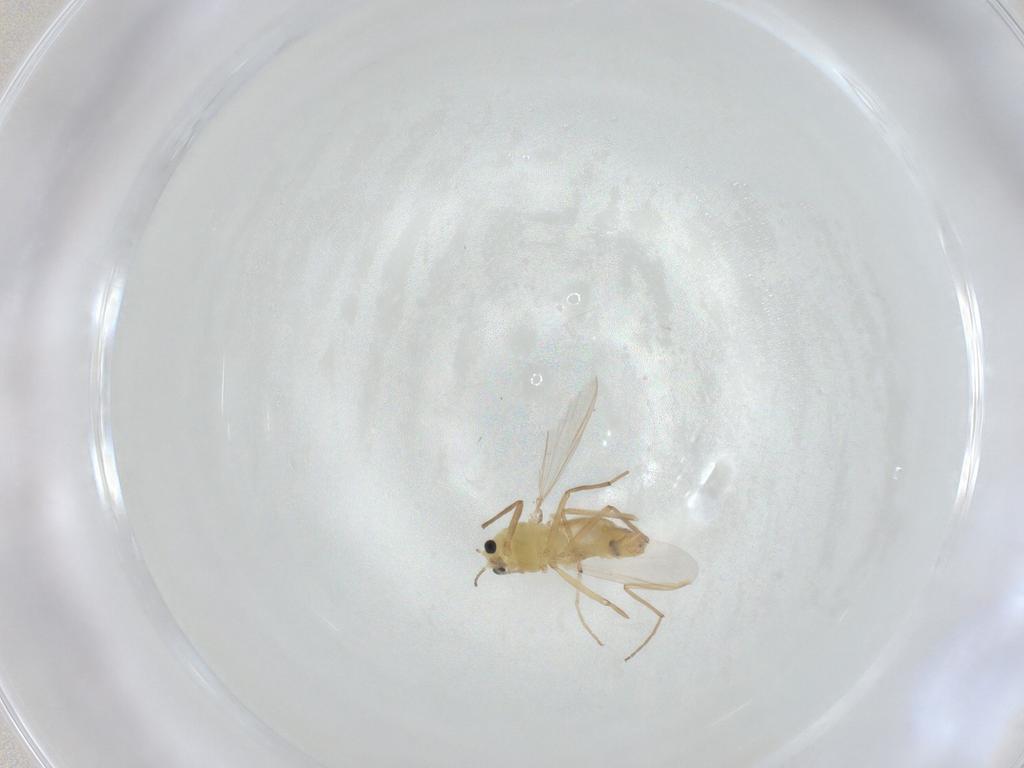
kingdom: Animalia
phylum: Arthropoda
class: Insecta
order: Diptera
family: Chironomidae
